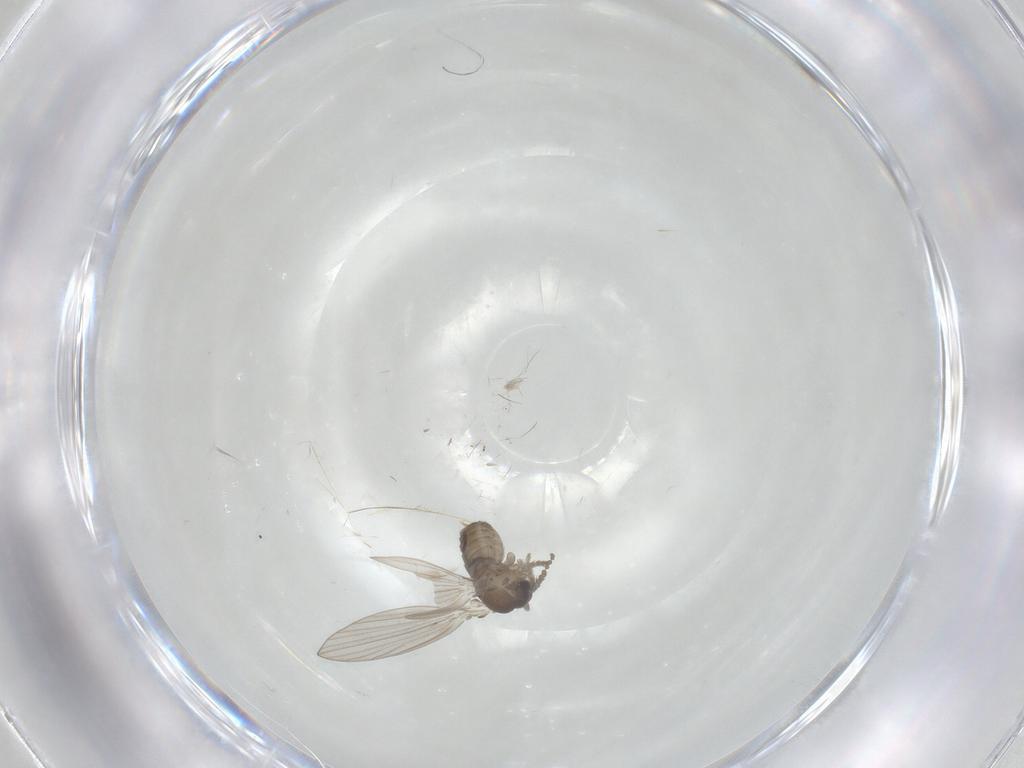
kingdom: Animalia
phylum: Arthropoda
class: Insecta
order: Diptera
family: Psychodidae
